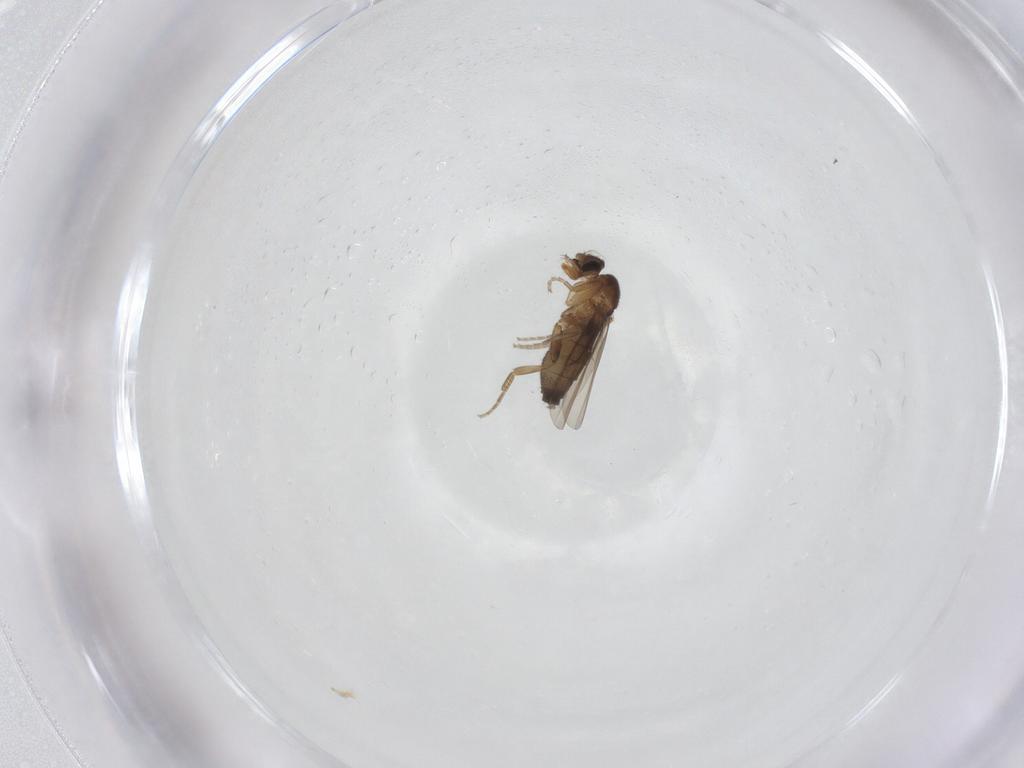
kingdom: Animalia
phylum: Arthropoda
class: Insecta
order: Diptera
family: Phoridae
